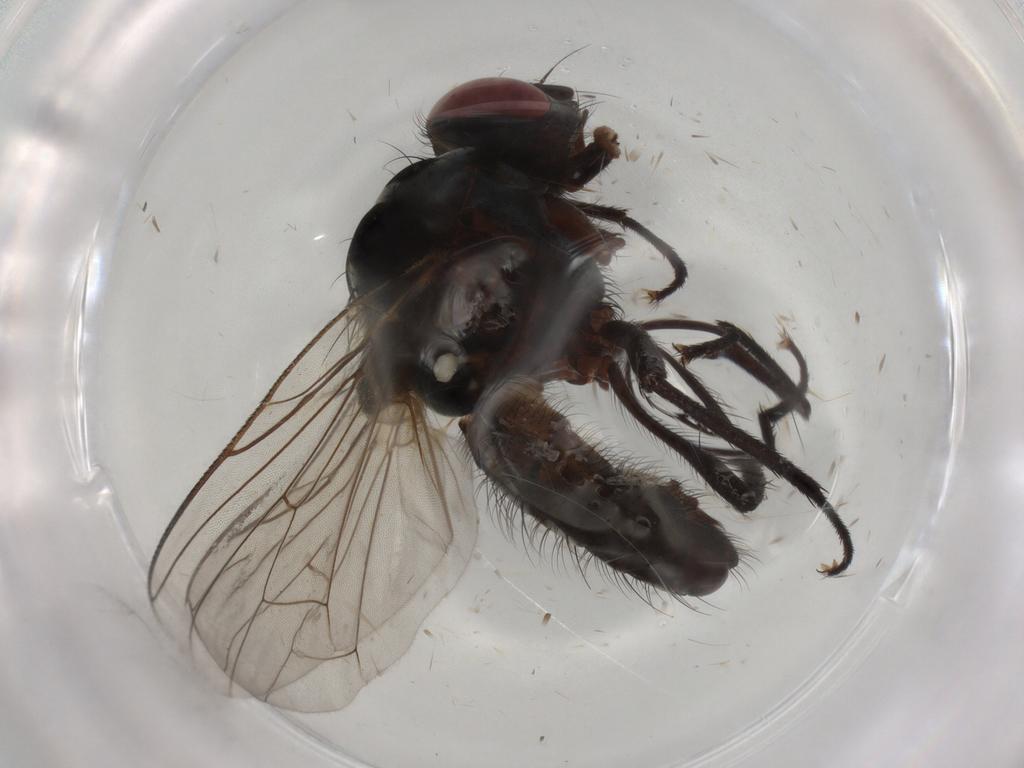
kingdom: Animalia
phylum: Arthropoda
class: Insecta
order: Diptera
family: Anthomyiidae
